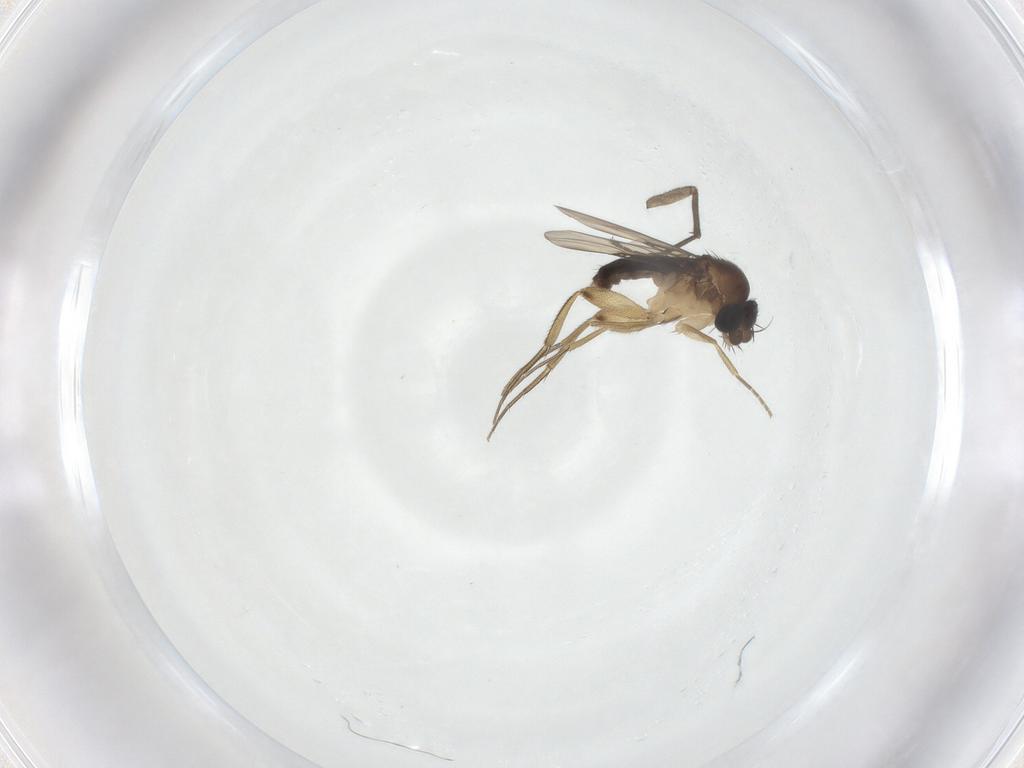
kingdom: Animalia
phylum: Arthropoda
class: Insecta
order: Diptera
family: Phoridae
